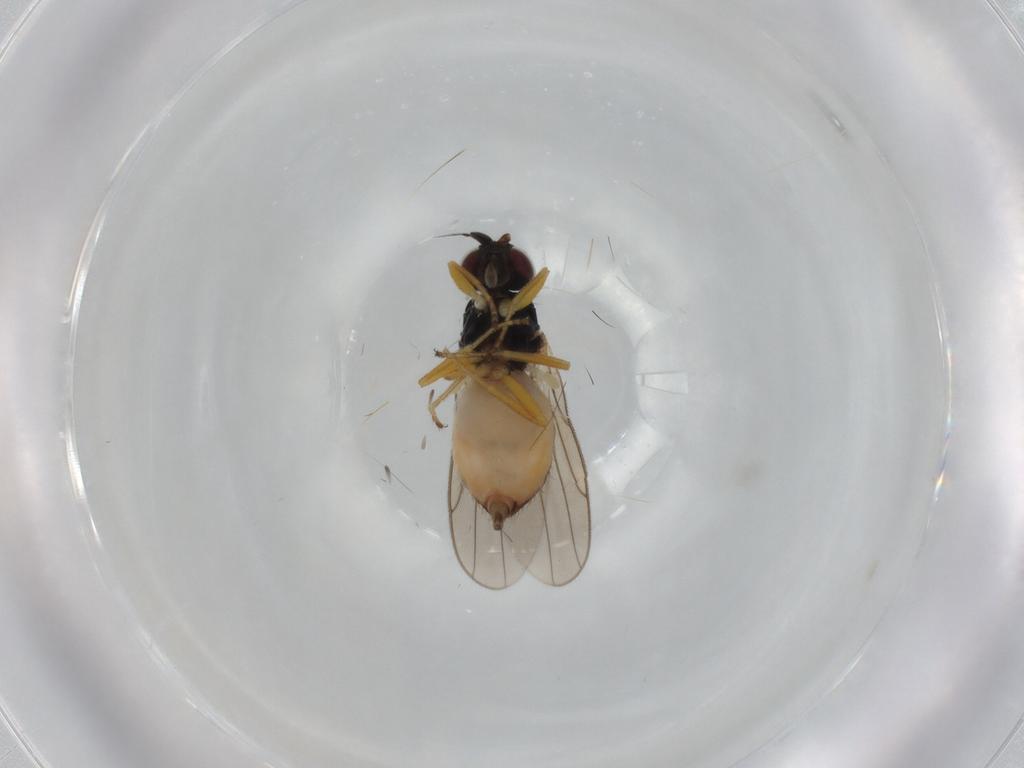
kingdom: Animalia
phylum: Arthropoda
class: Insecta
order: Diptera
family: Chloropidae
